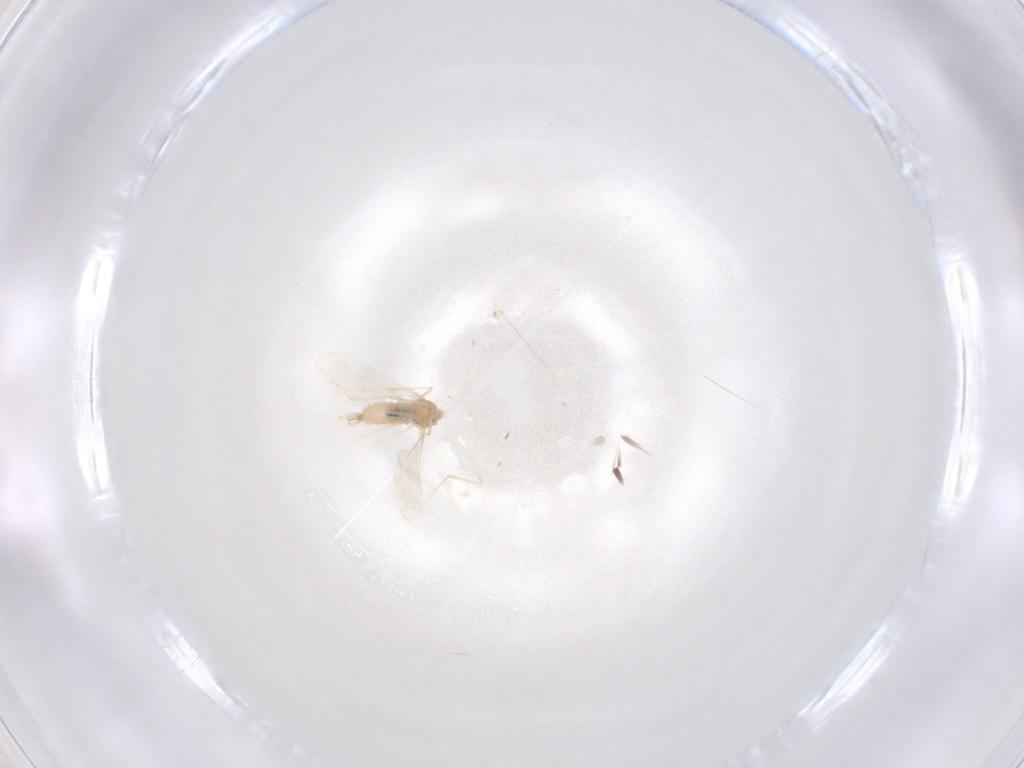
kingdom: Animalia
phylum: Arthropoda
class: Insecta
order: Diptera
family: Cecidomyiidae
